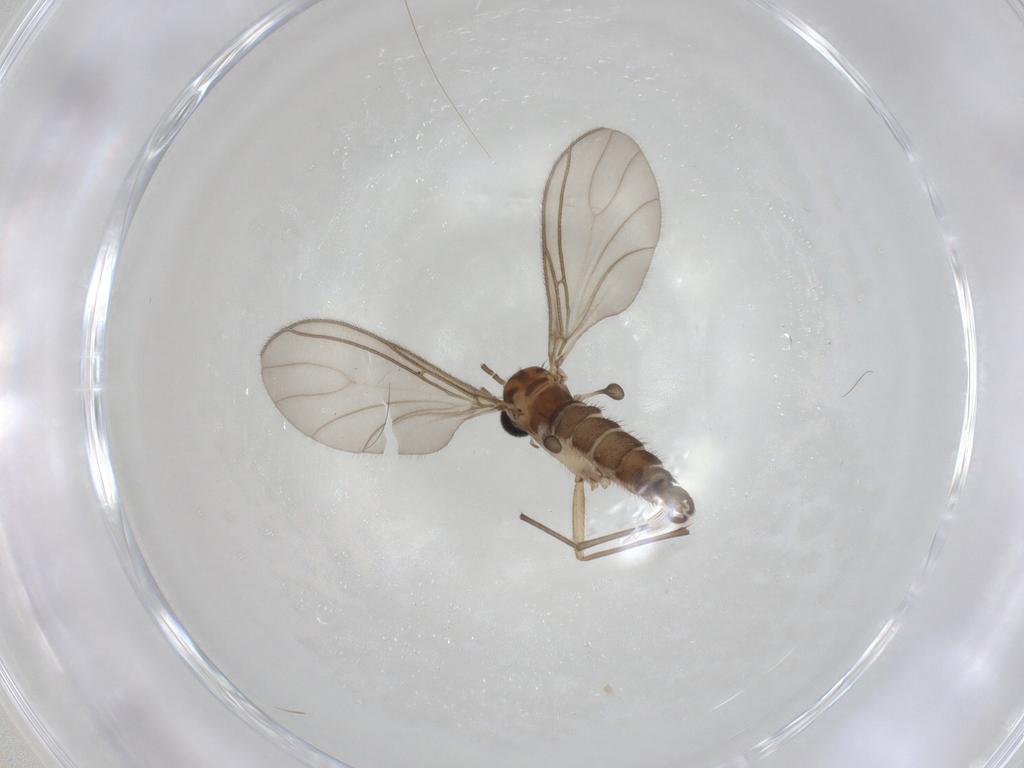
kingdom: Animalia
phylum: Arthropoda
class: Insecta
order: Diptera
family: Sciaridae
